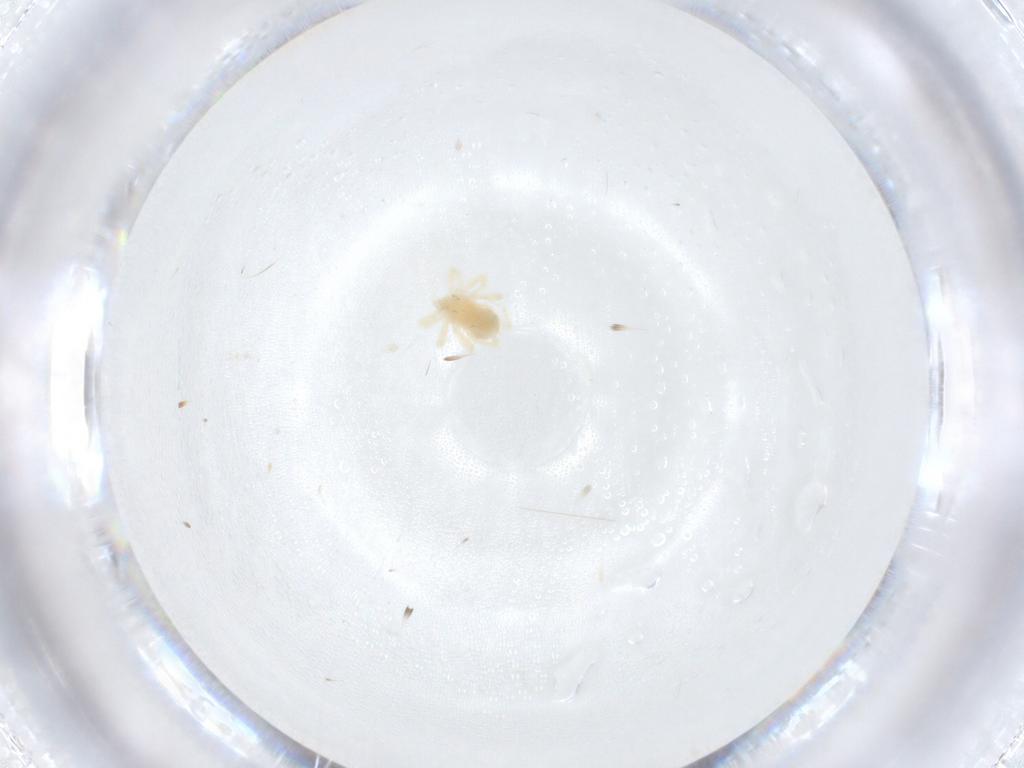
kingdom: Animalia
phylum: Arthropoda
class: Arachnida
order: Trombidiformes
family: Anystidae
